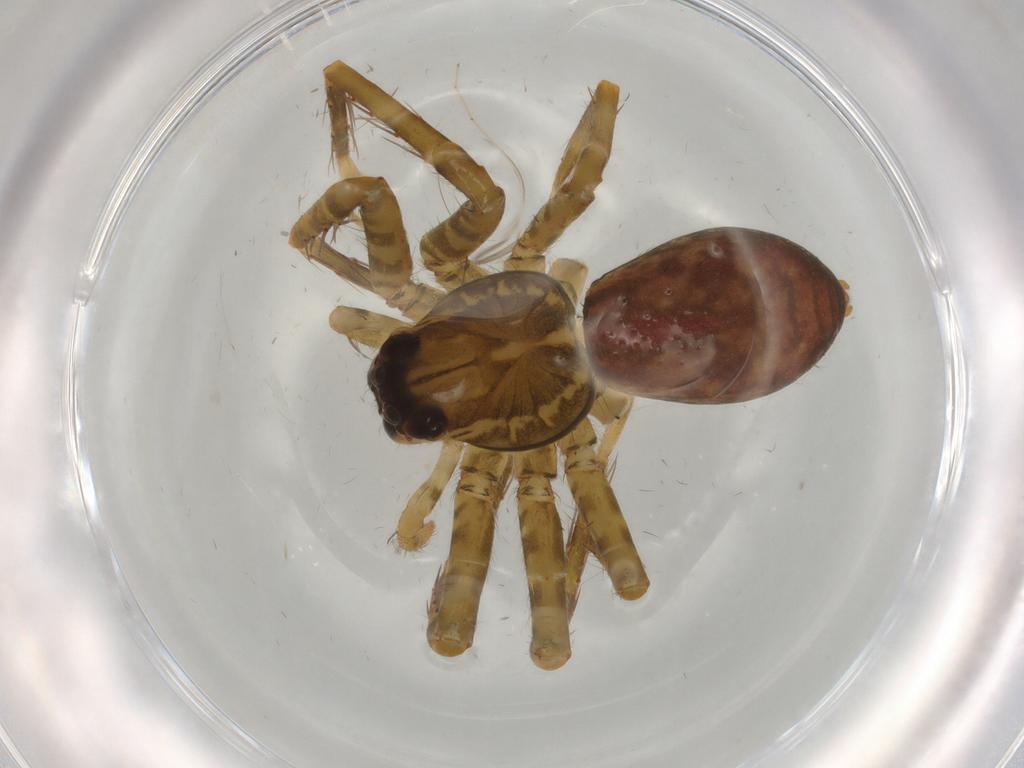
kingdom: Animalia
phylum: Arthropoda
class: Arachnida
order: Araneae
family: Ctenidae
